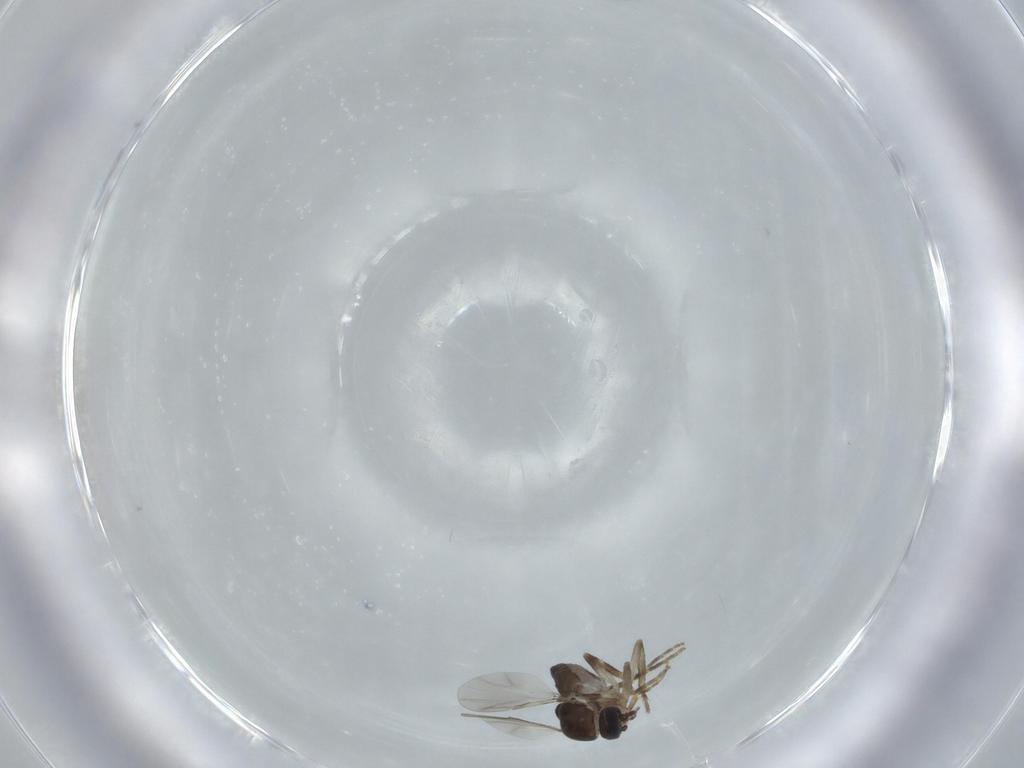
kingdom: Animalia
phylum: Arthropoda
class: Insecta
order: Diptera
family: Ceratopogonidae
